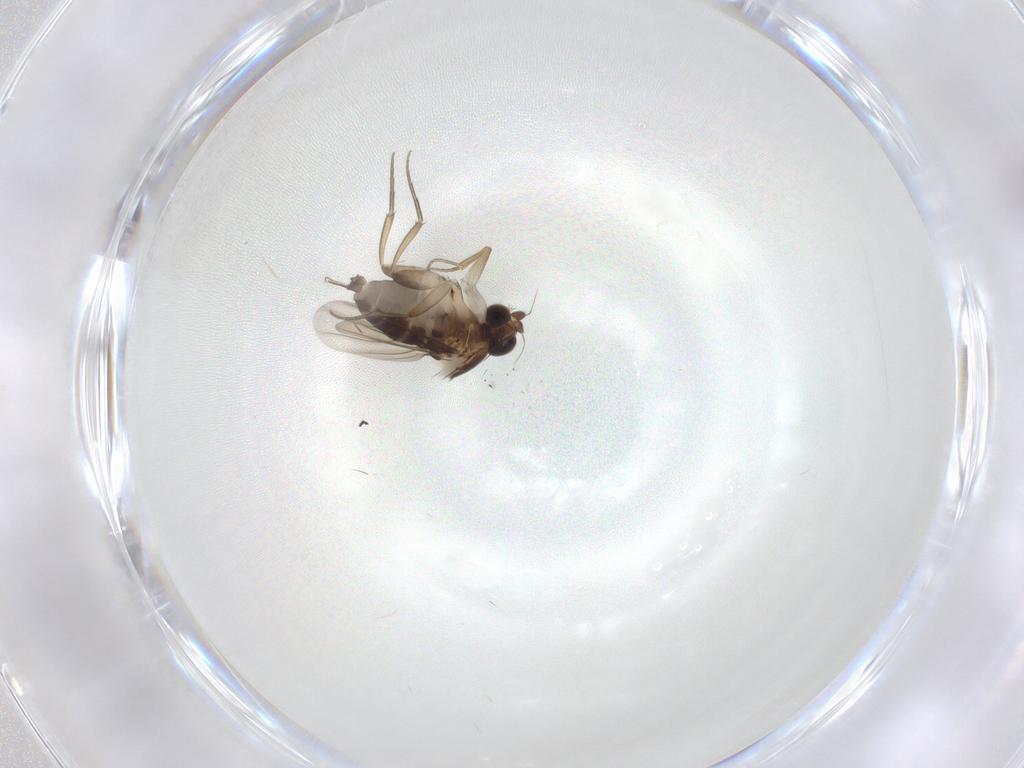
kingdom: Animalia
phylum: Arthropoda
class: Insecta
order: Diptera
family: Phoridae
